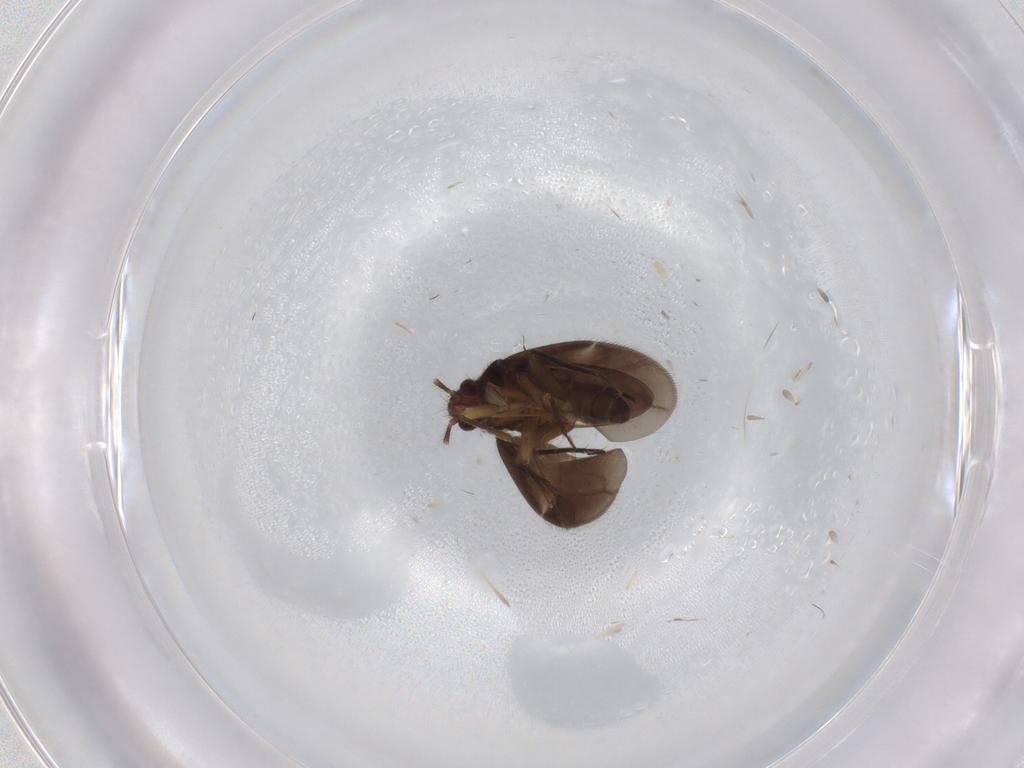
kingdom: Animalia
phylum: Arthropoda
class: Insecta
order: Hemiptera
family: Ceratocombidae
